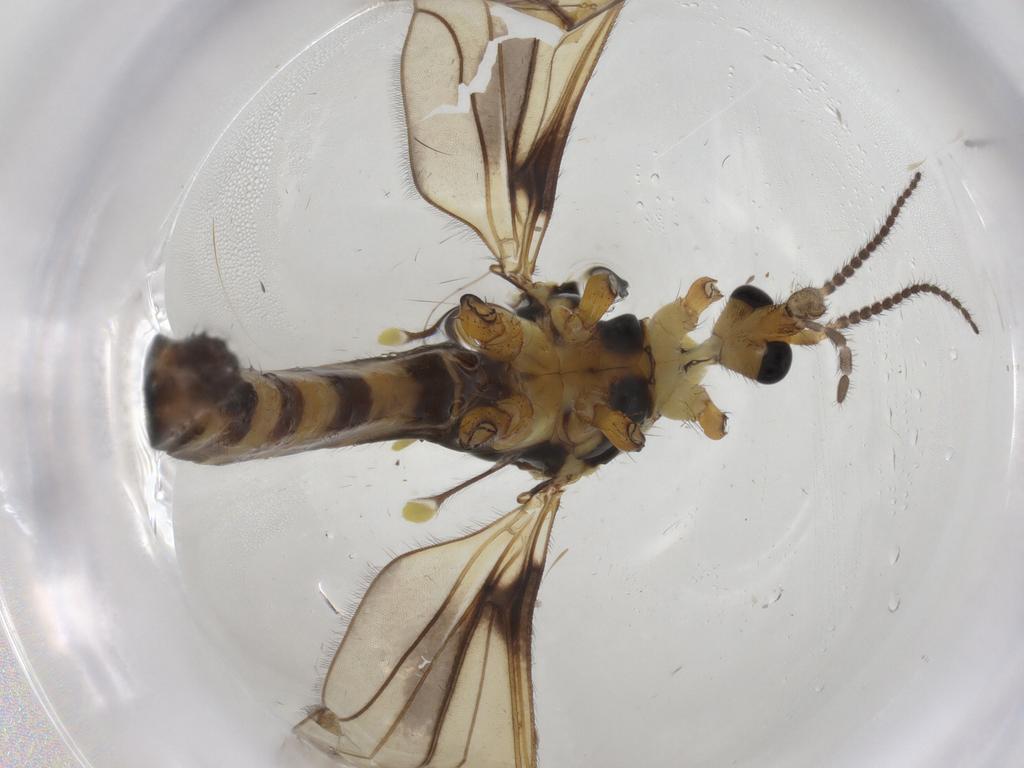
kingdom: Animalia
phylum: Arthropoda
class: Insecta
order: Diptera
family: Limoniidae
